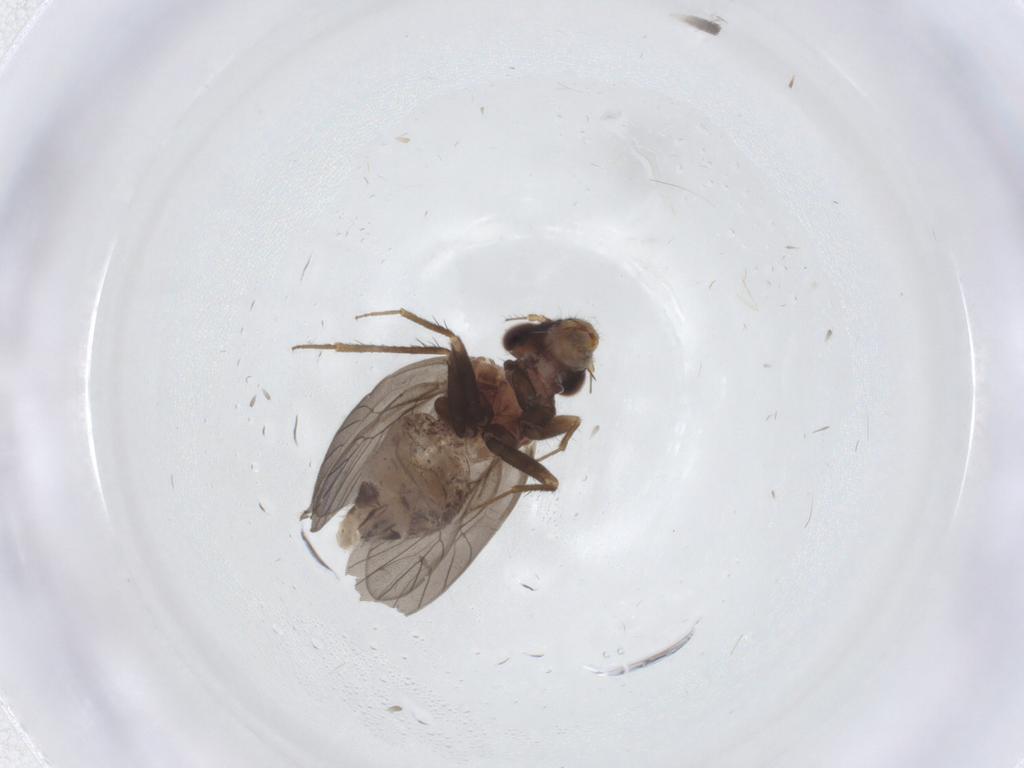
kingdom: Animalia
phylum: Arthropoda
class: Insecta
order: Psocodea
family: Lepidopsocidae
